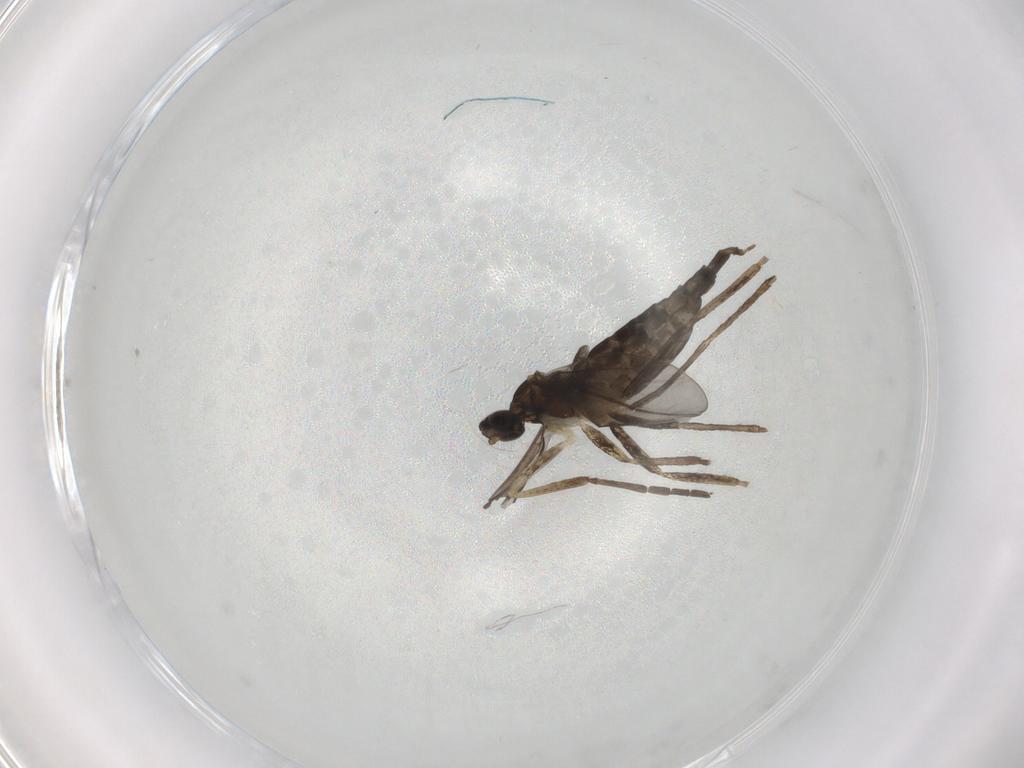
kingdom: Animalia
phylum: Arthropoda
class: Insecta
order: Diptera
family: Cecidomyiidae
